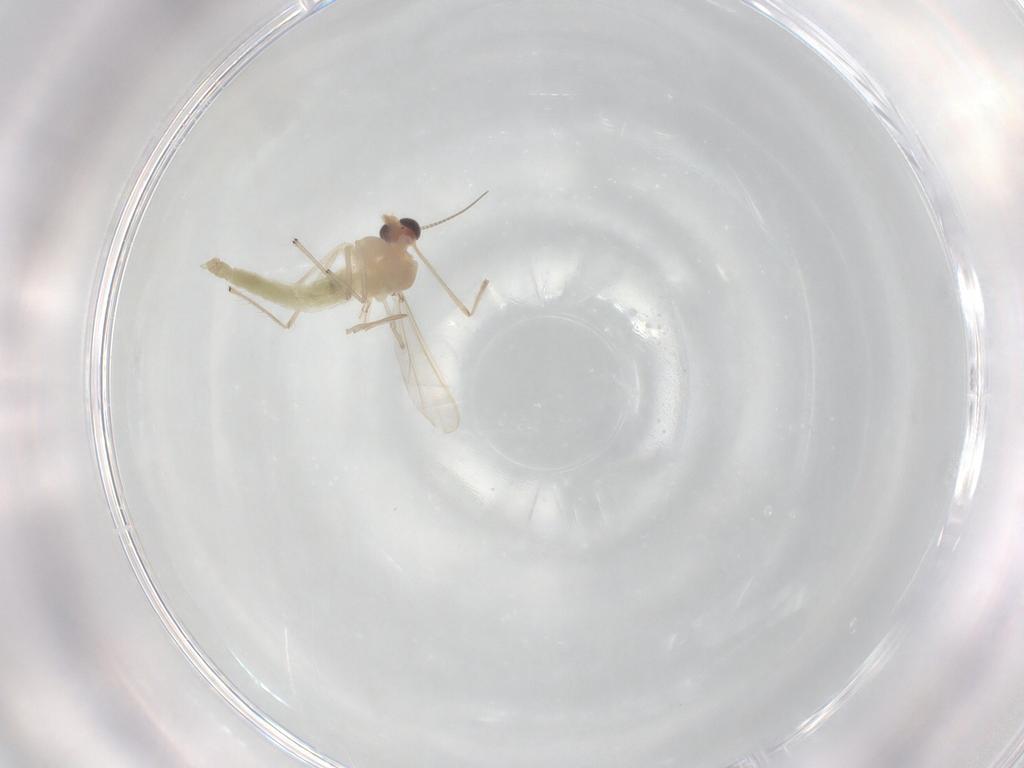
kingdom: Animalia
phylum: Arthropoda
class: Insecta
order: Diptera
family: Chironomidae
